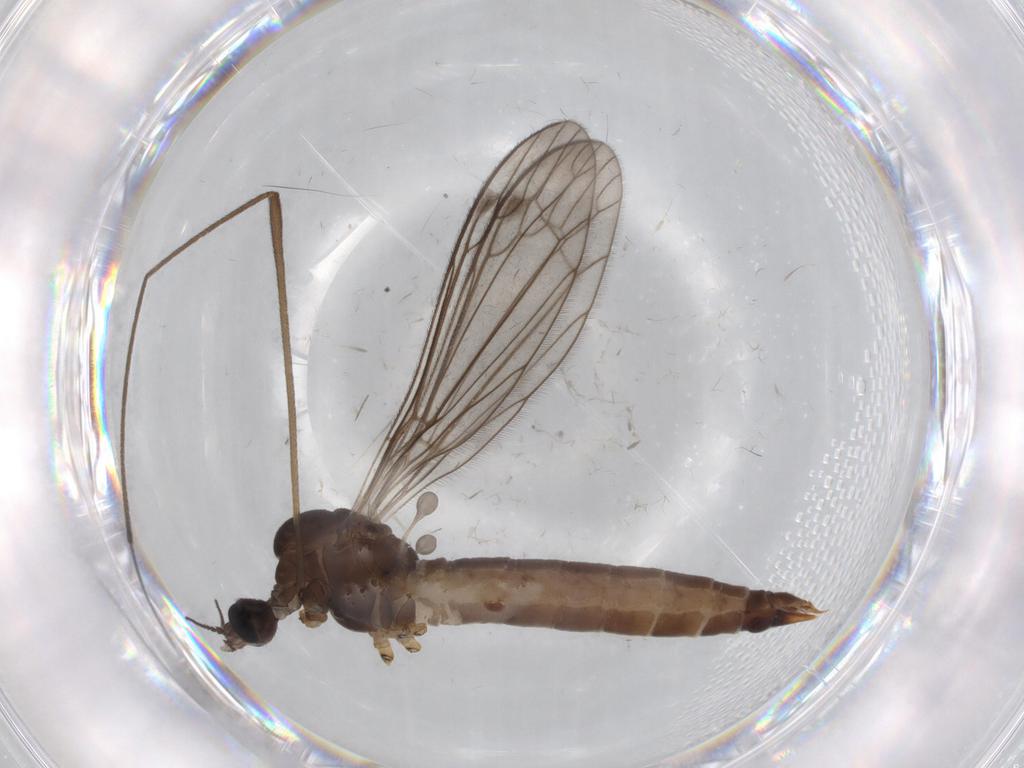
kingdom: Animalia
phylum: Arthropoda
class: Insecta
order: Diptera
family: Limoniidae
